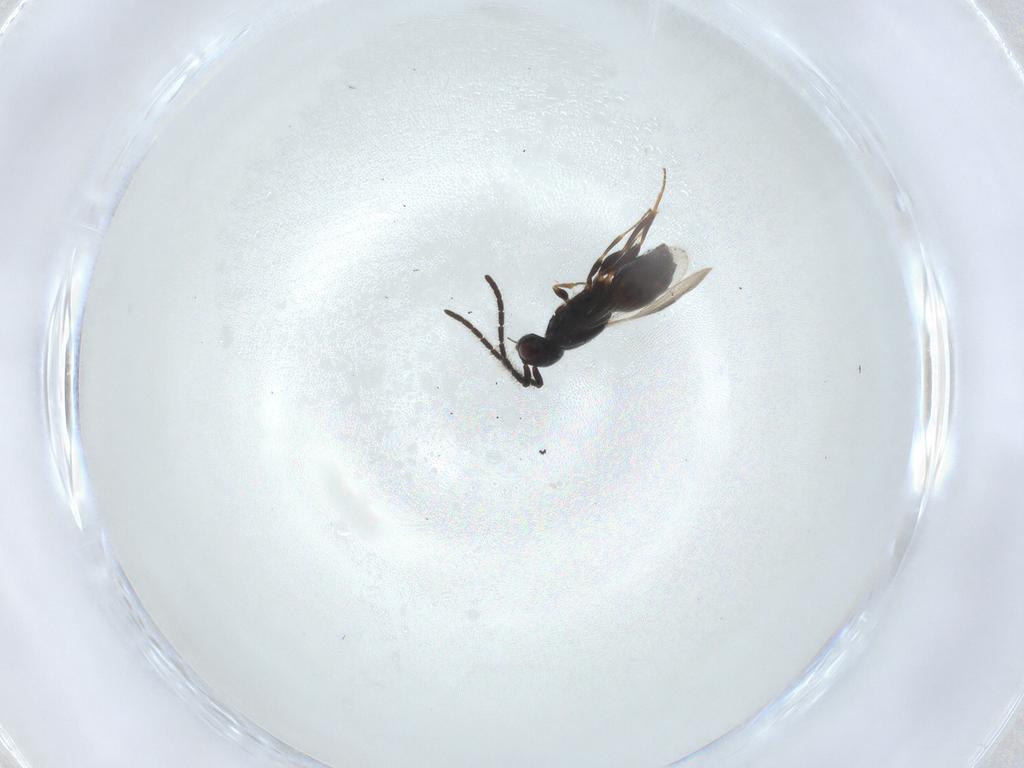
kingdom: Animalia
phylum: Arthropoda
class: Insecta
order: Hymenoptera
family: Megaspilidae
